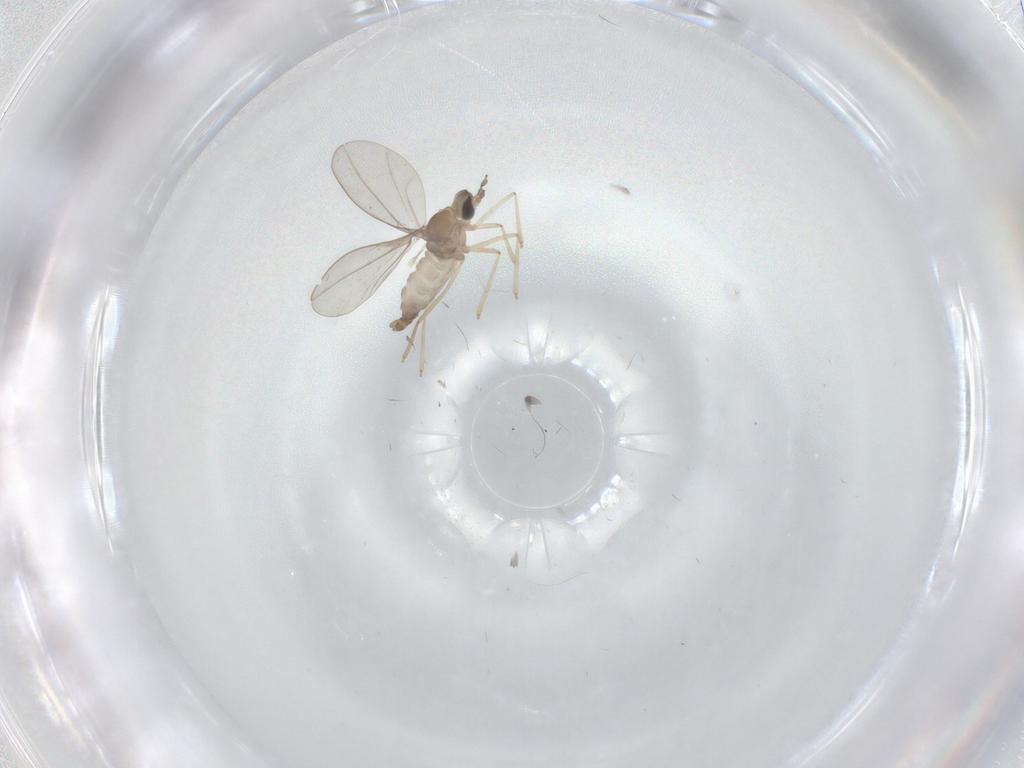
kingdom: Animalia
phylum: Arthropoda
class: Insecta
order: Diptera
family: Cecidomyiidae
